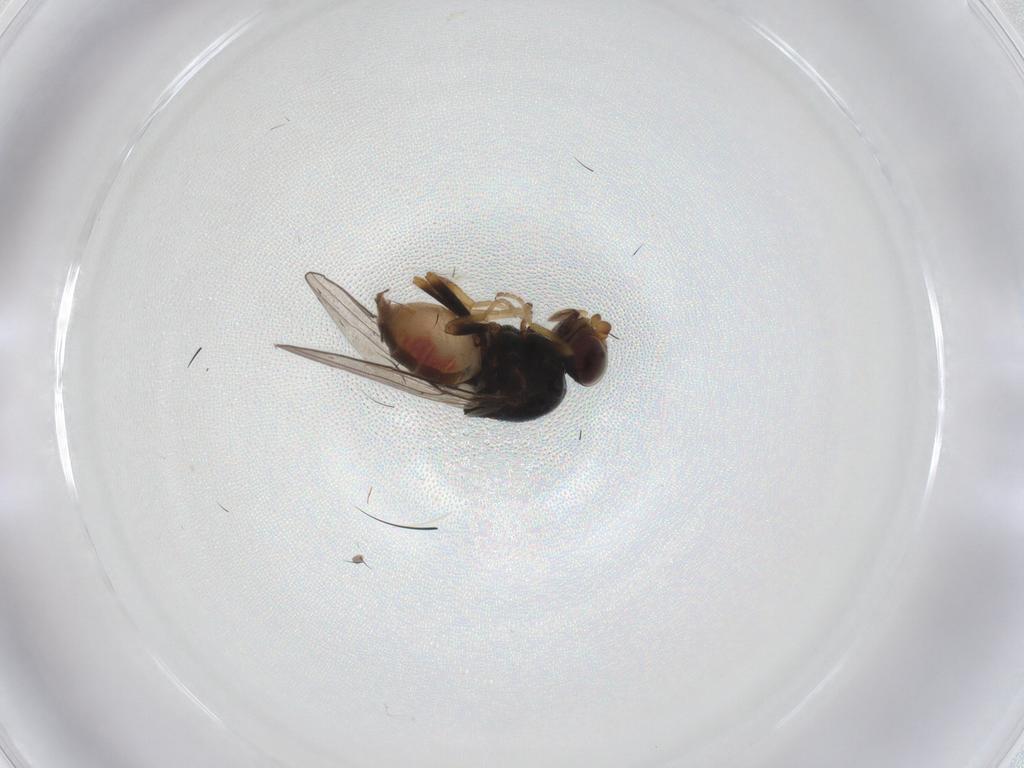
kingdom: Animalia
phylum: Arthropoda
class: Insecta
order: Diptera
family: Chloropidae
